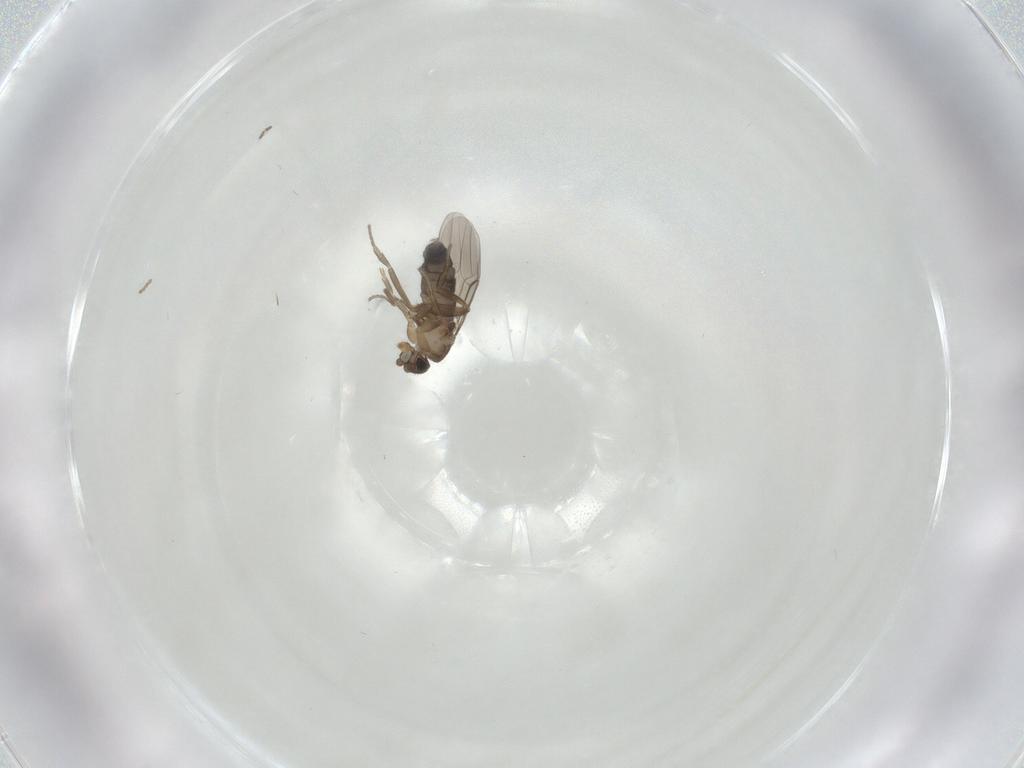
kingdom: Animalia
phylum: Arthropoda
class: Insecta
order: Diptera
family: Phoridae
